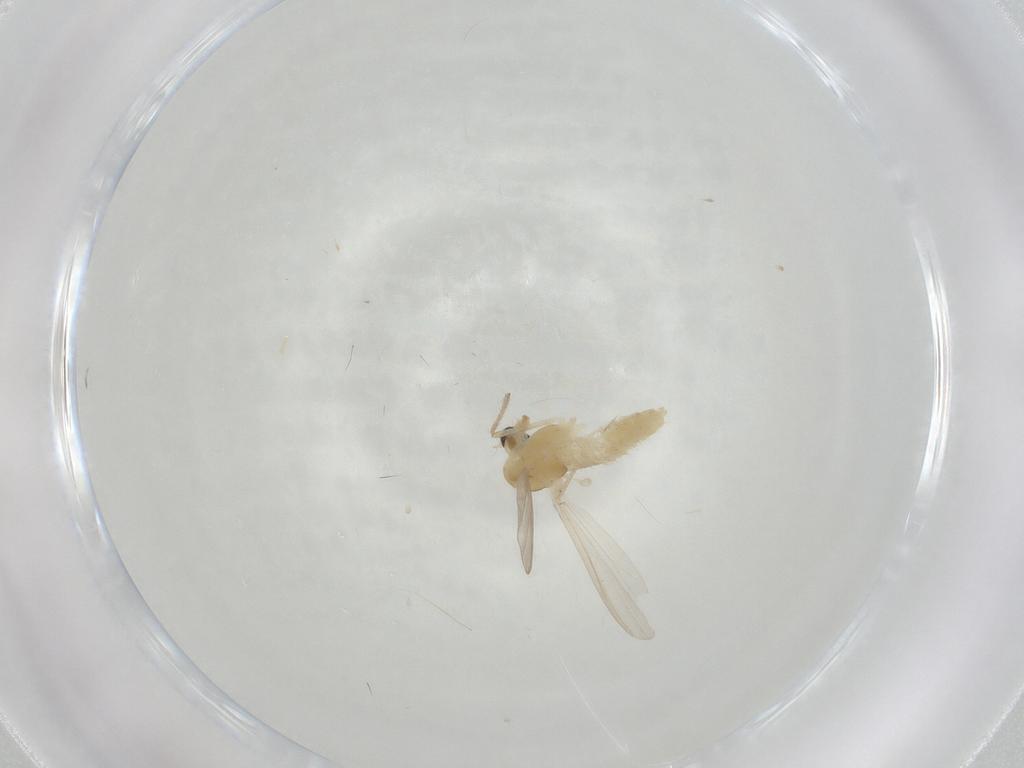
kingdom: Animalia
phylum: Arthropoda
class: Insecta
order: Diptera
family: Chironomidae
